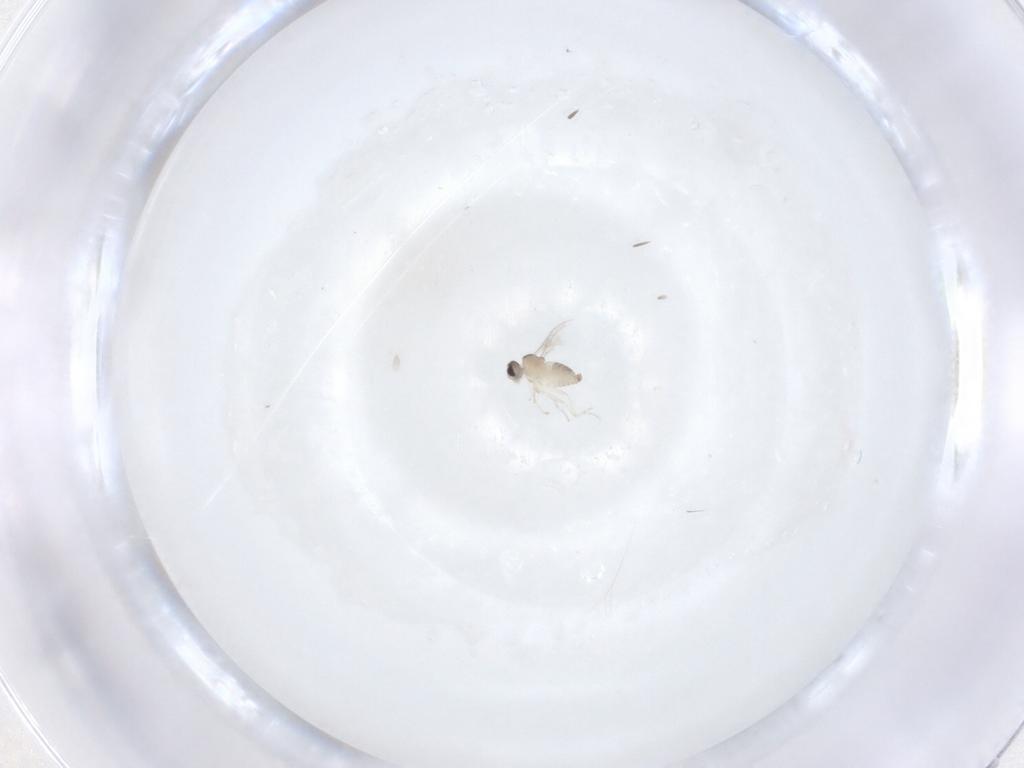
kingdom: Animalia
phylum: Arthropoda
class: Insecta
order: Diptera
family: Cecidomyiidae
